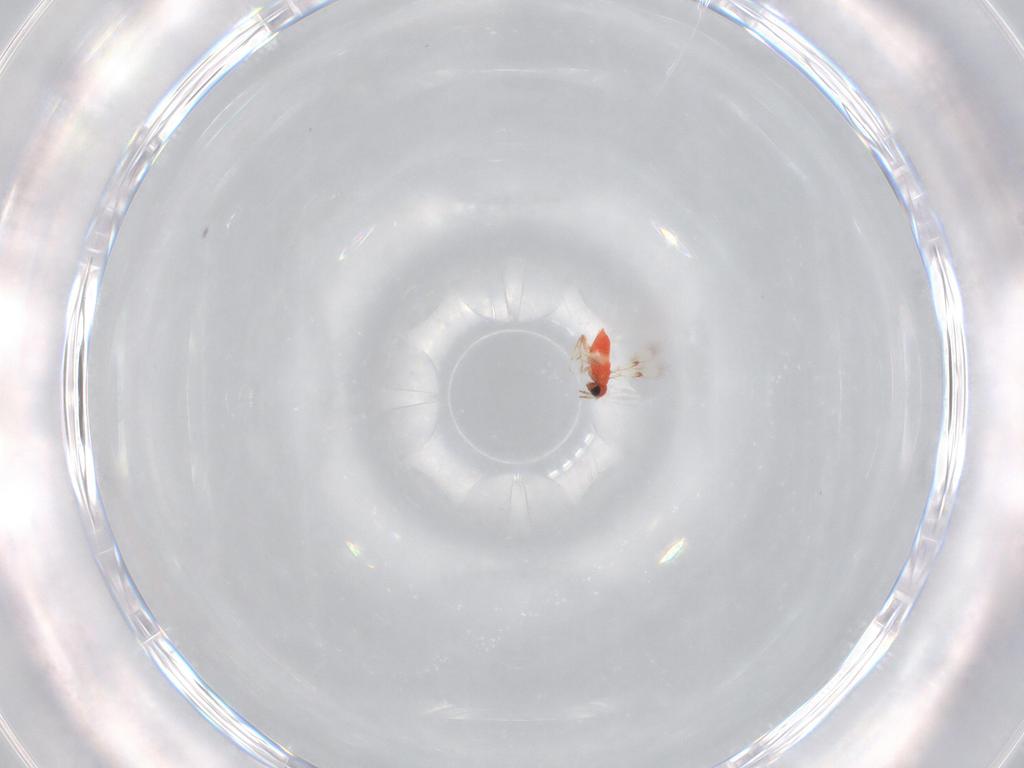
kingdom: Animalia
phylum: Arthropoda
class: Insecta
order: Hymenoptera
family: Trichogrammatidae
